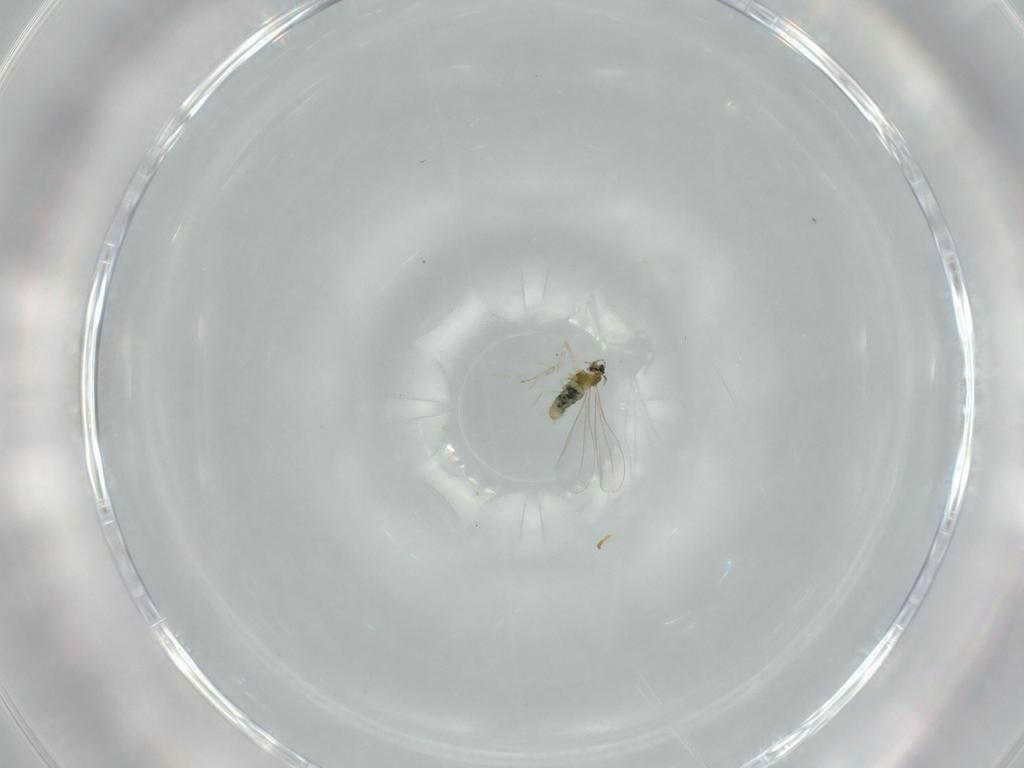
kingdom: Animalia
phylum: Arthropoda
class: Insecta
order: Diptera
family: Cecidomyiidae
